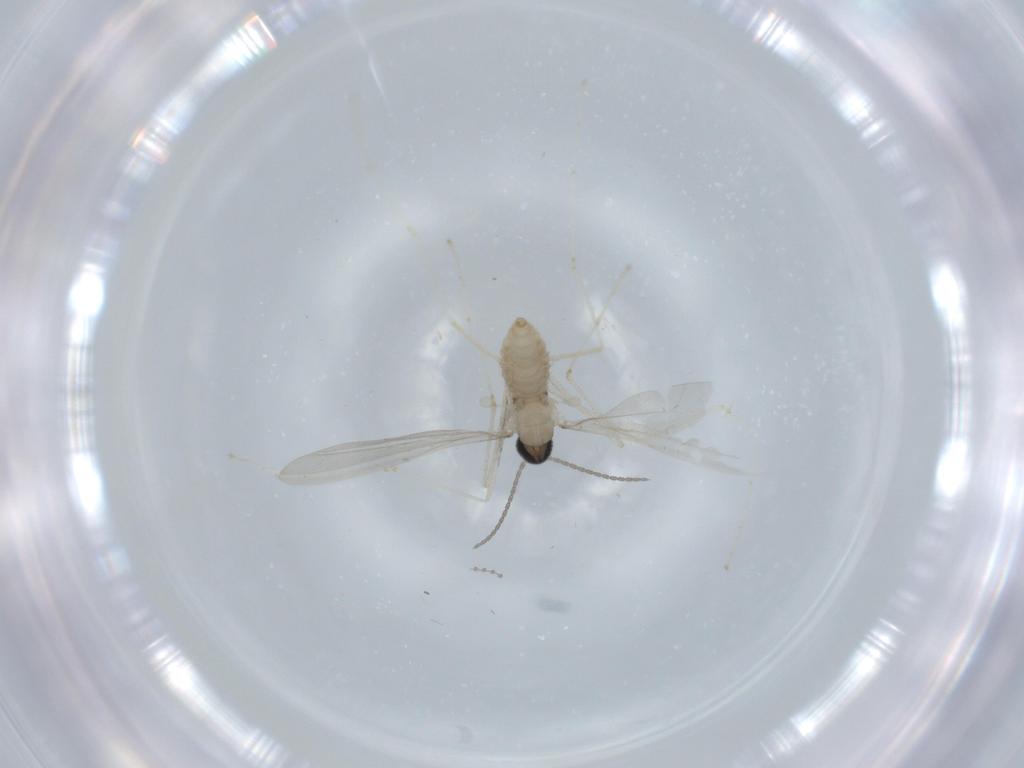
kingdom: Animalia
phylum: Arthropoda
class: Insecta
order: Diptera
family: Cecidomyiidae
